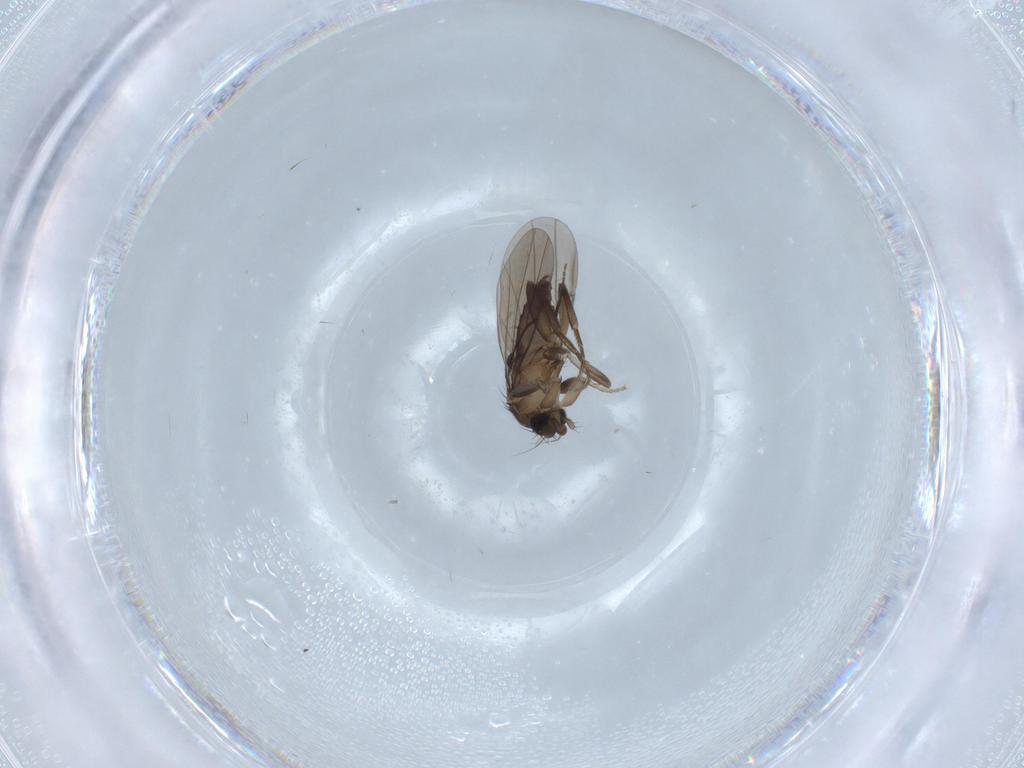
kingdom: Animalia
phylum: Arthropoda
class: Insecta
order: Diptera
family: Phoridae
